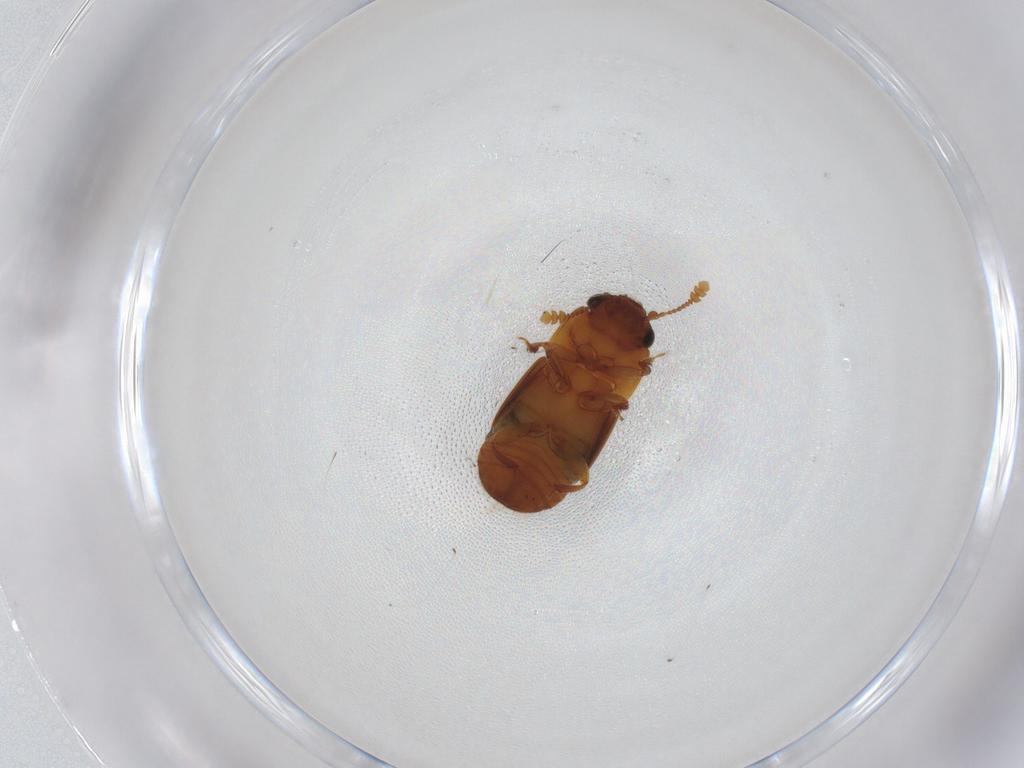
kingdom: Animalia
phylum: Arthropoda
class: Insecta
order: Coleoptera
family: Nitidulidae
